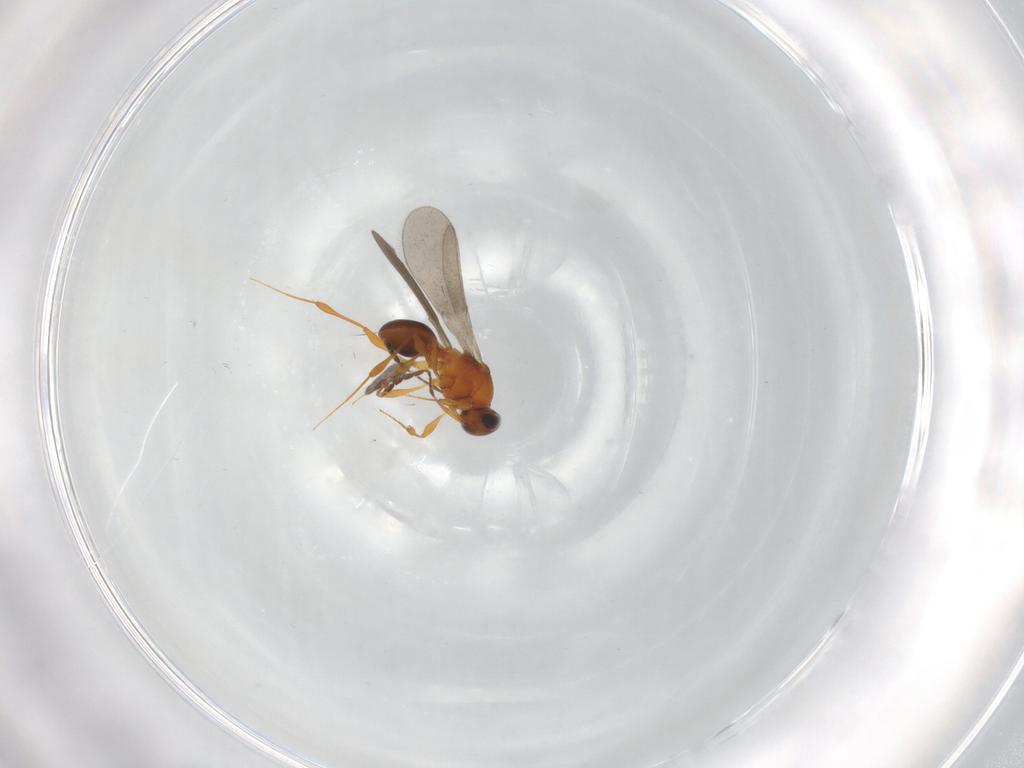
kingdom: Animalia
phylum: Arthropoda
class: Insecta
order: Hymenoptera
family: Platygastridae
